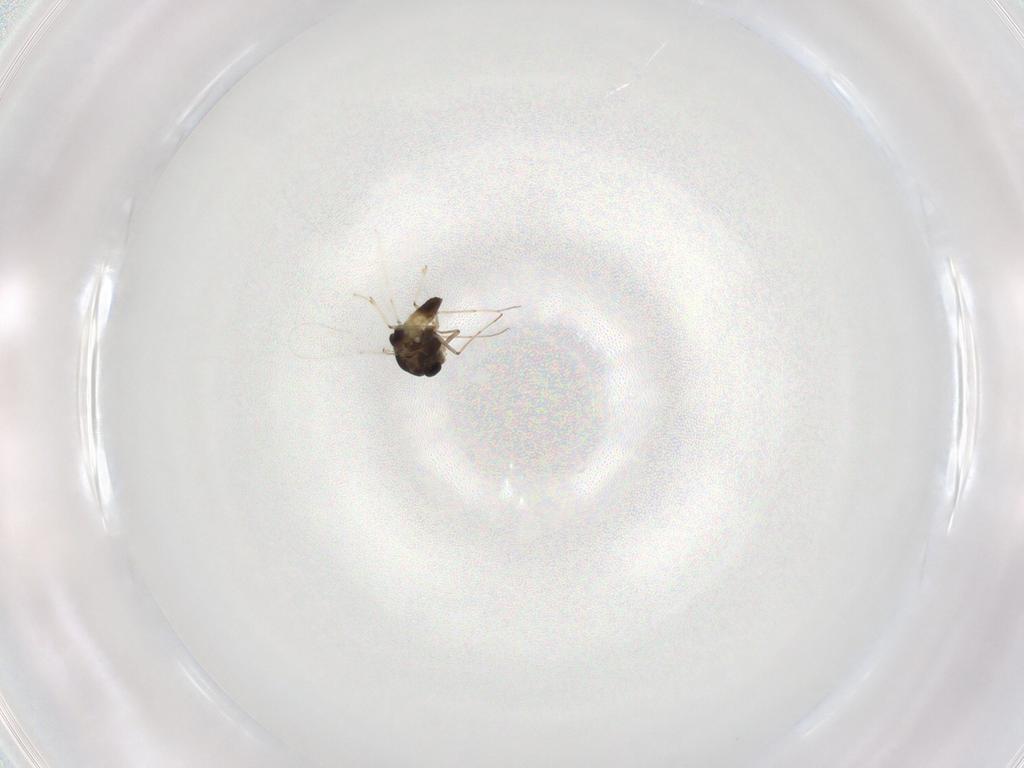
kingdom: Animalia
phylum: Arthropoda
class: Insecta
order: Diptera
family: Chironomidae
